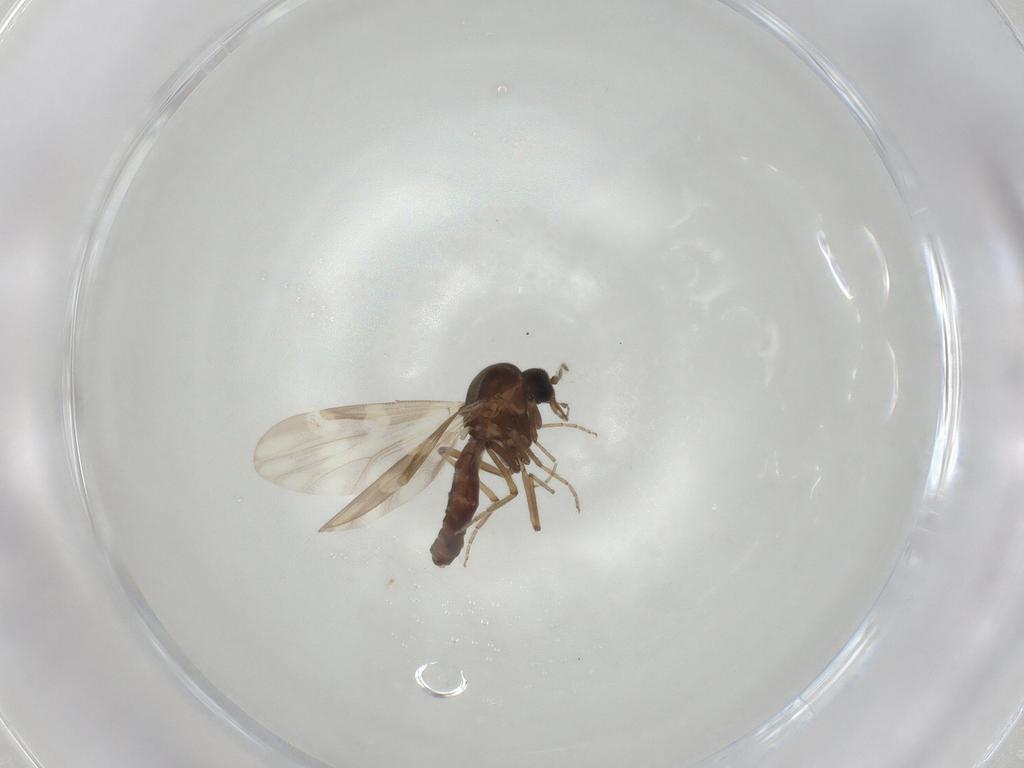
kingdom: Animalia
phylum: Arthropoda
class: Insecta
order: Diptera
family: Ceratopogonidae
